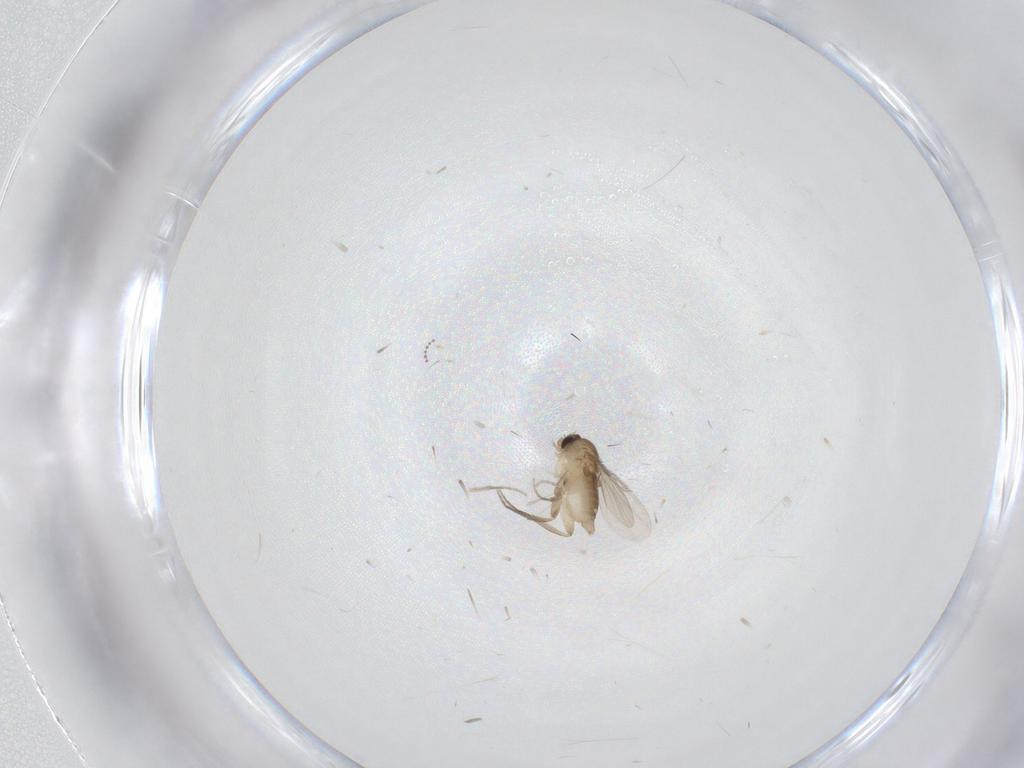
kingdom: Animalia
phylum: Arthropoda
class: Insecta
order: Diptera
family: Phoridae
